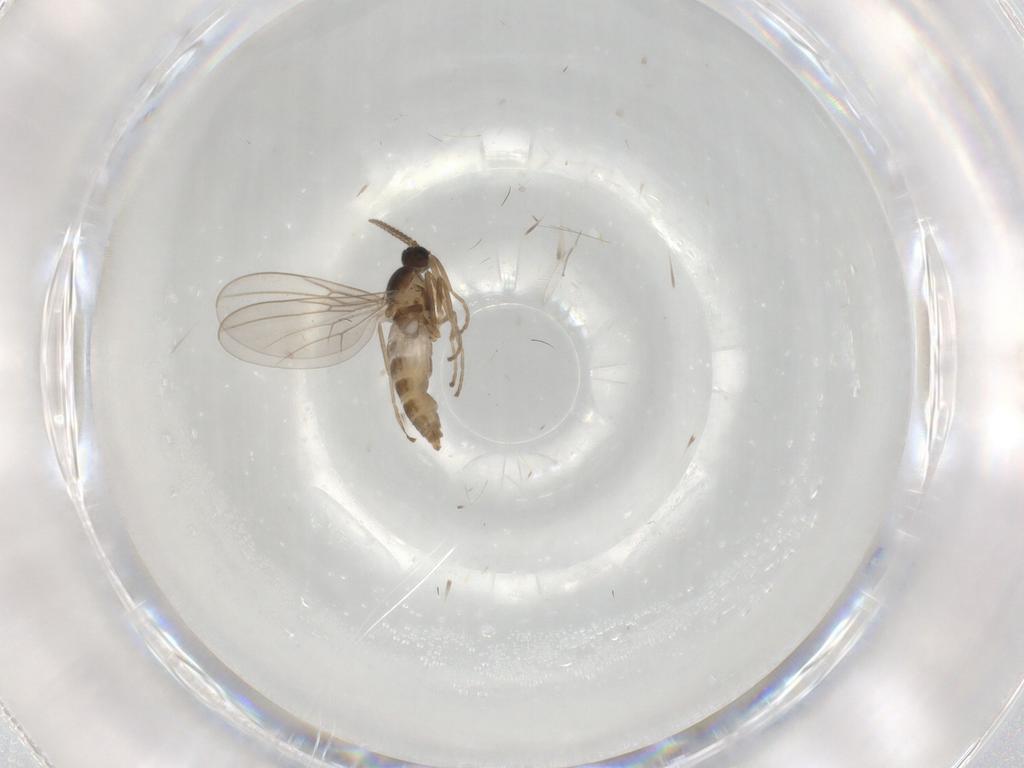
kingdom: Animalia
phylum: Arthropoda
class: Insecta
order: Diptera
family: Cecidomyiidae
